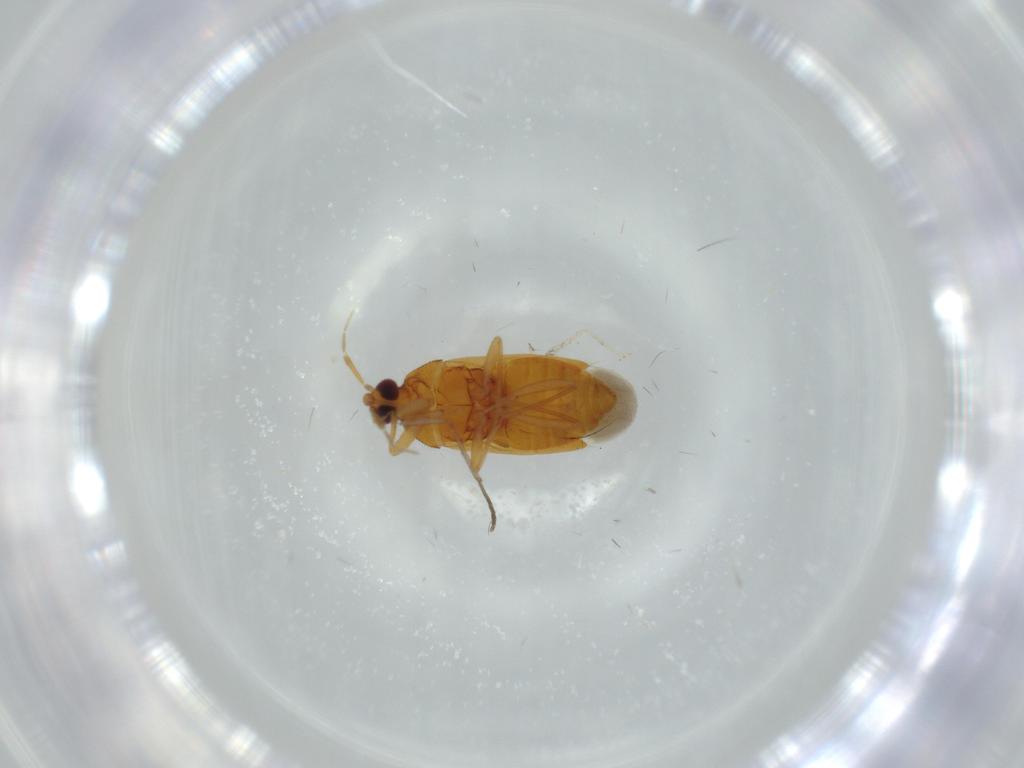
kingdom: Animalia
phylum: Arthropoda
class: Insecta
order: Hemiptera
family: Anthocoridae
